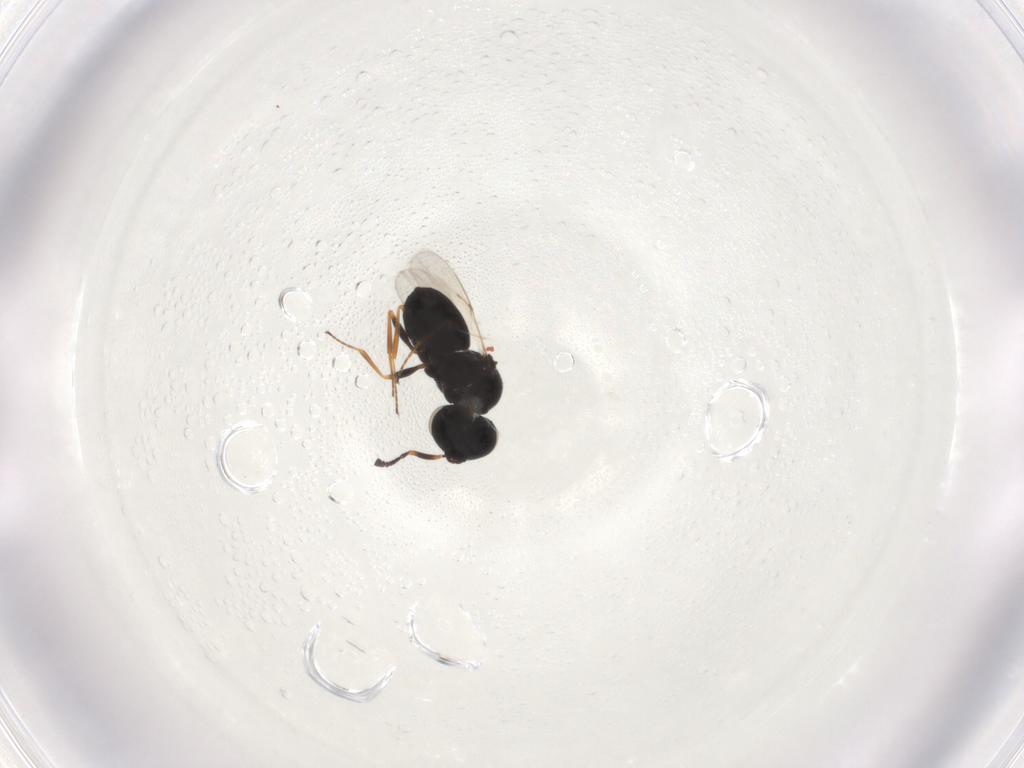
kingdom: Animalia
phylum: Arthropoda
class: Insecta
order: Hymenoptera
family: Scelionidae
